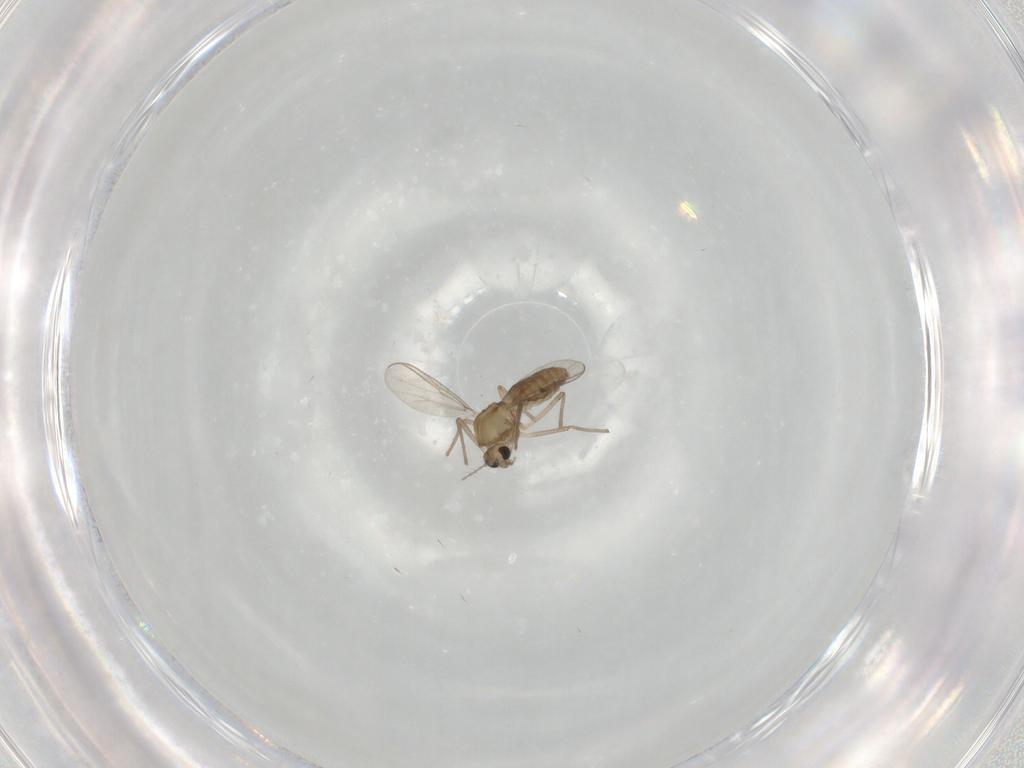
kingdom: Animalia
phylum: Arthropoda
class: Insecta
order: Diptera
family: Chironomidae
